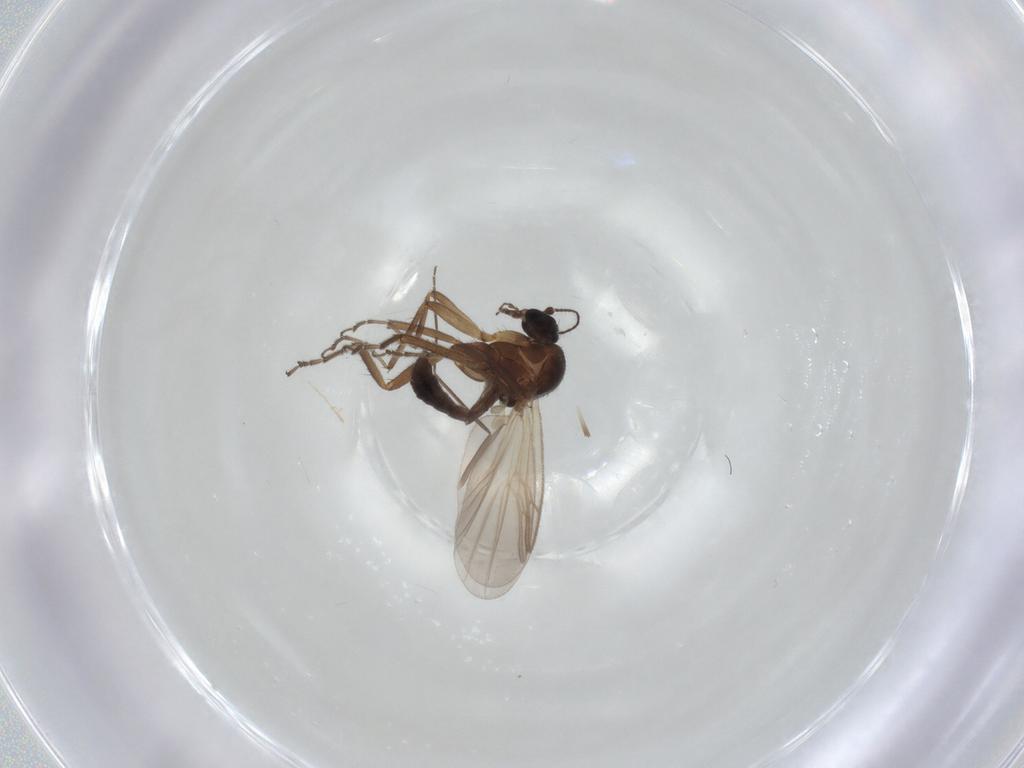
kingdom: Animalia
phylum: Arthropoda
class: Insecta
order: Diptera
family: Ceratopogonidae
